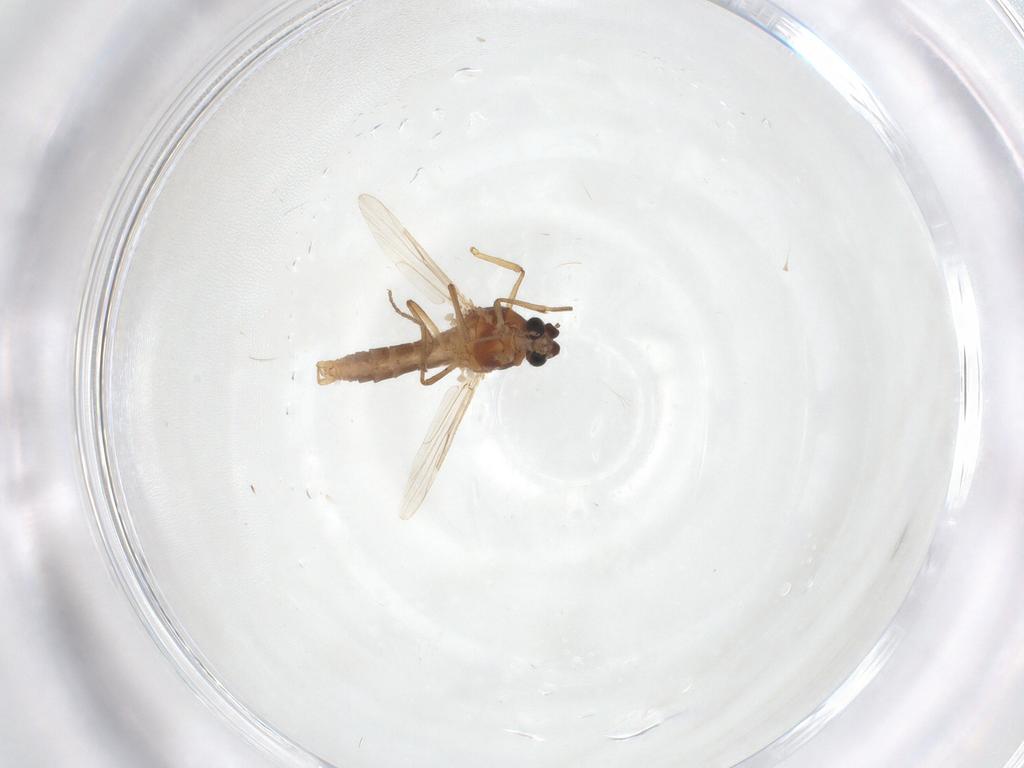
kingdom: Animalia
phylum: Arthropoda
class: Insecta
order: Diptera
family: Ceratopogonidae
